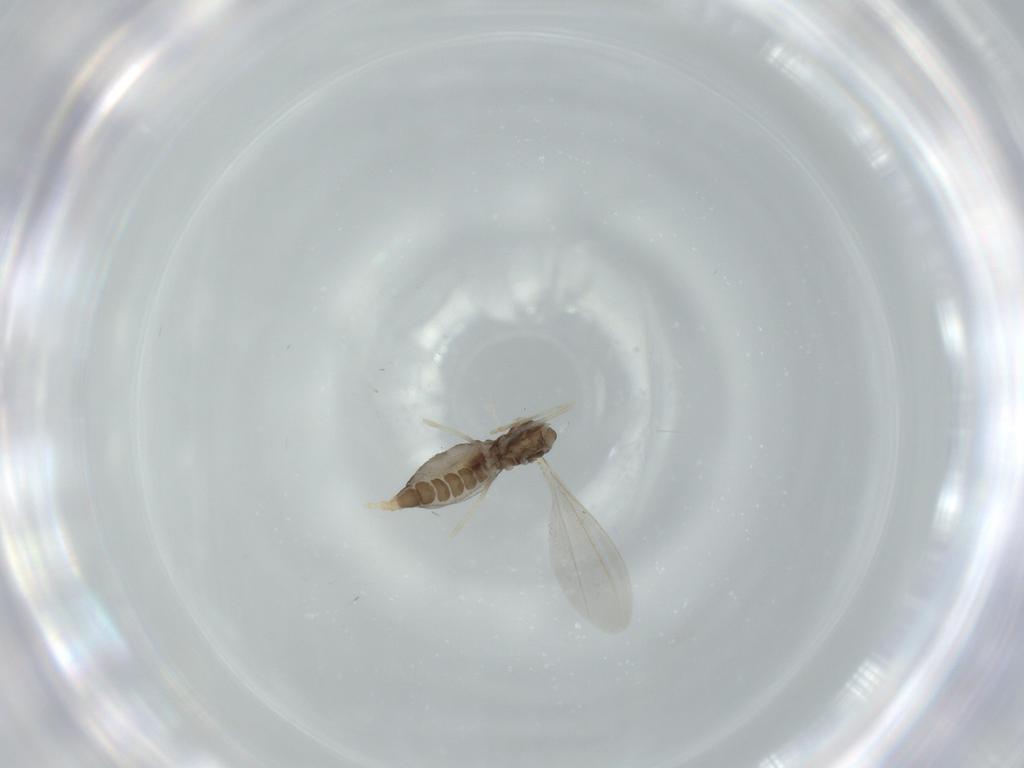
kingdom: Animalia
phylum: Arthropoda
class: Insecta
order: Diptera
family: Cecidomyiidae
